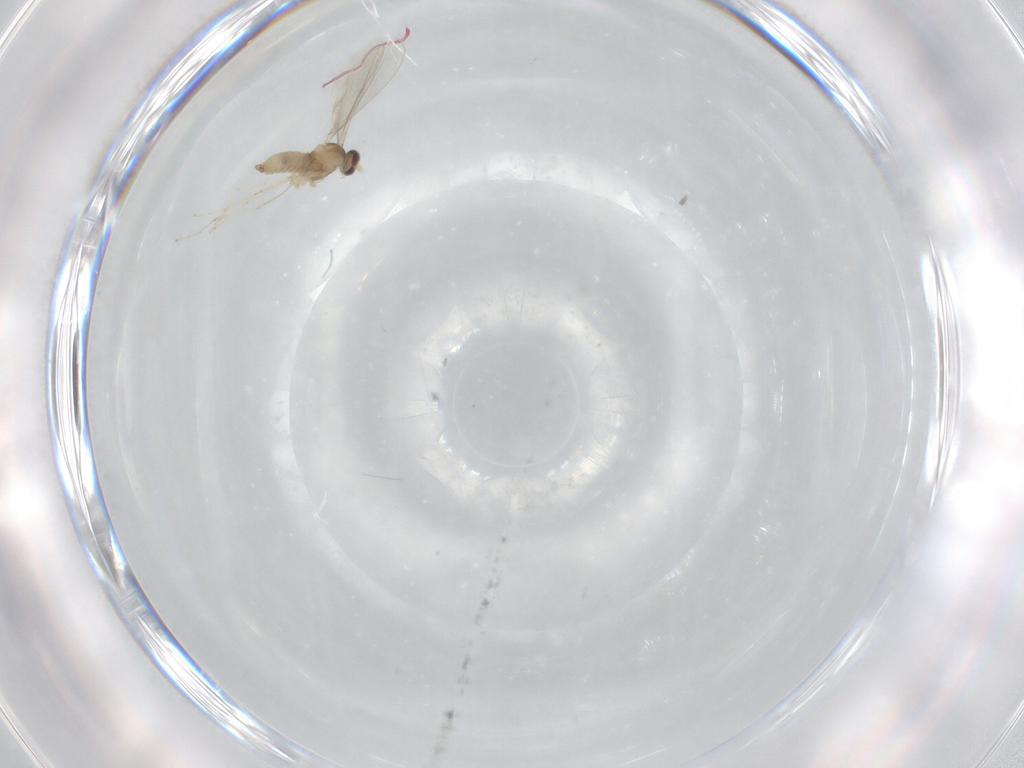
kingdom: Animalia
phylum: Arthropoda
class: Insecta
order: Diptera
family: Cecidomyiidae
